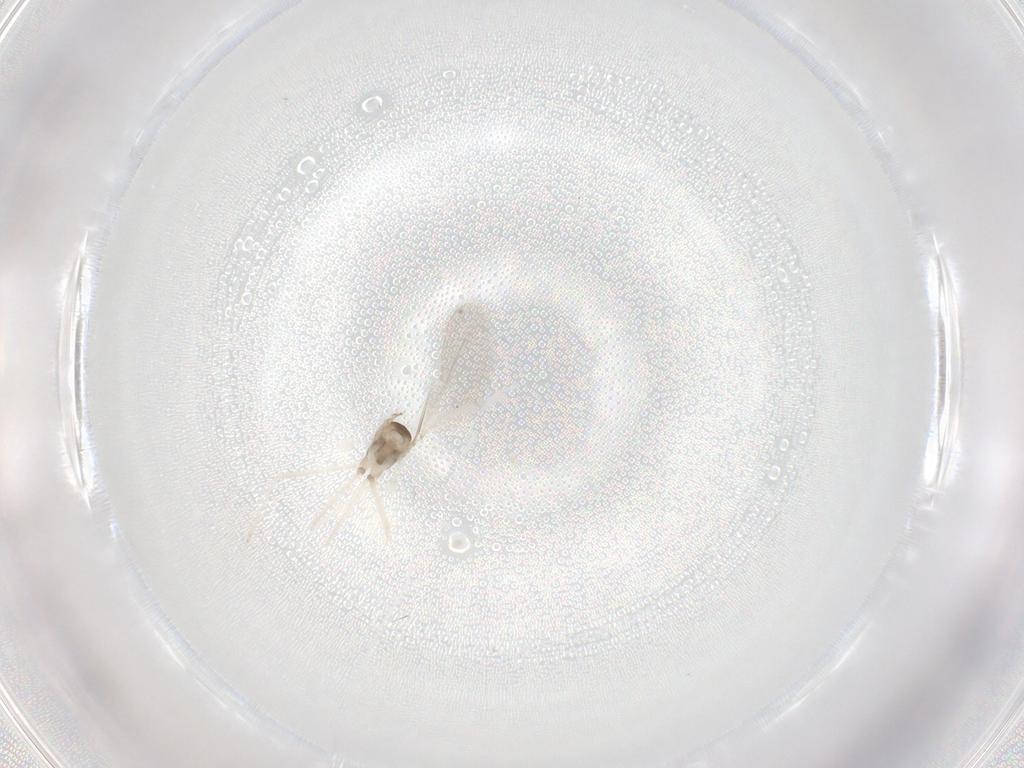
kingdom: Animalia
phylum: Arthropoda
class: Insecta
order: Diptera
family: Cecidomyiidae
